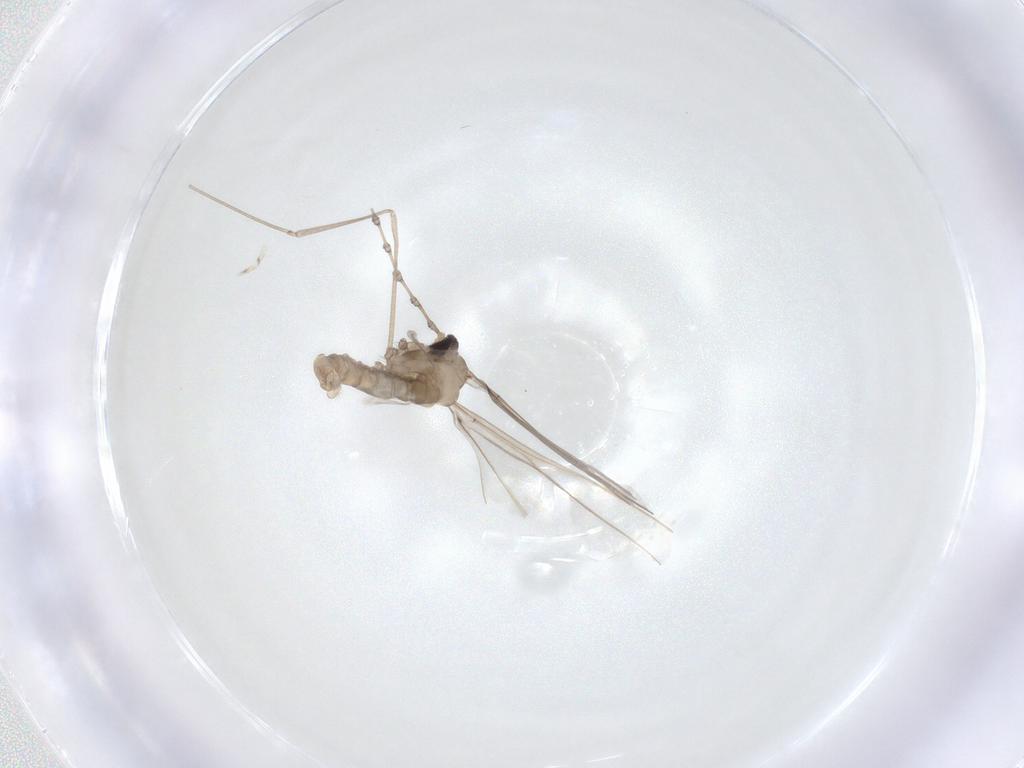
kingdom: Animalia
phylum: Arthropoda
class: Insecta
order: Diptera
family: Cecidomyiidae
